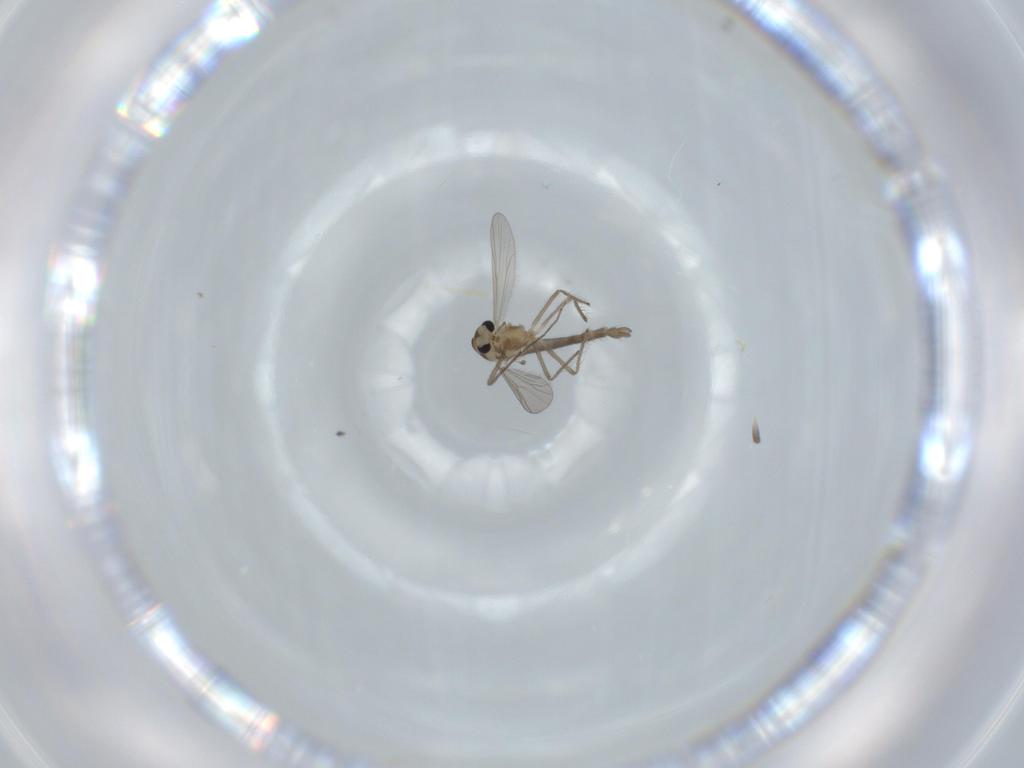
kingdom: Animalia
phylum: Arthropoda
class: Insecta
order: Diptera
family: Chironomidae
